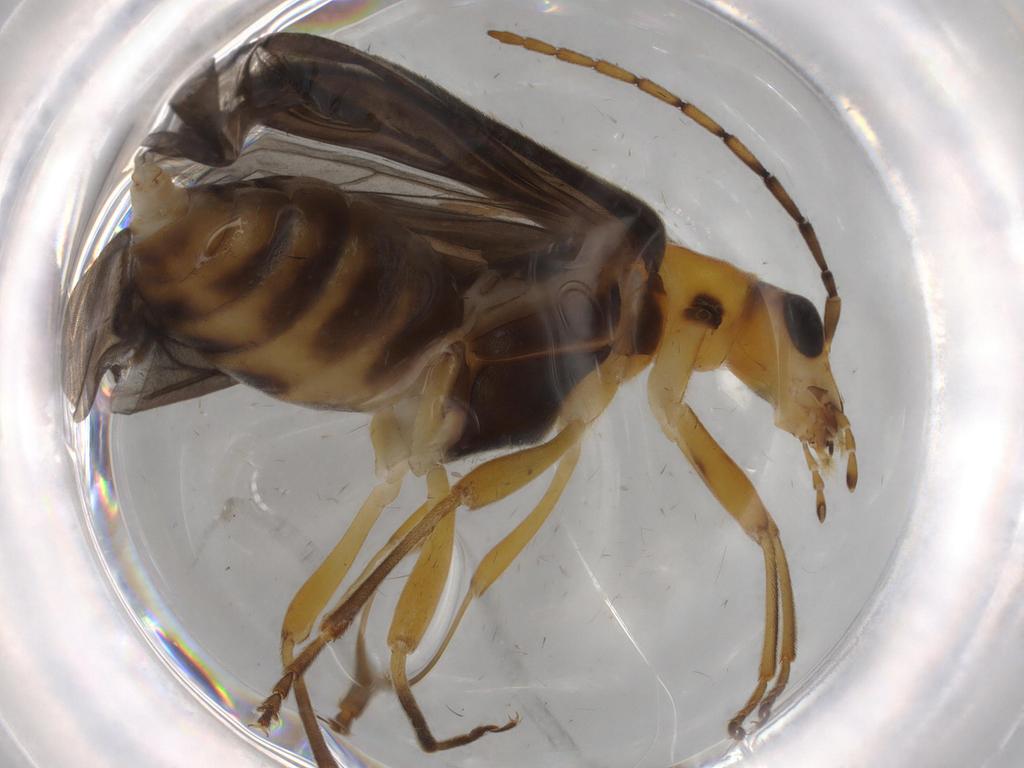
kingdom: Animalia
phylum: Arthropoda
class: Insecta
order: Coleoptera
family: Oedemeridae
